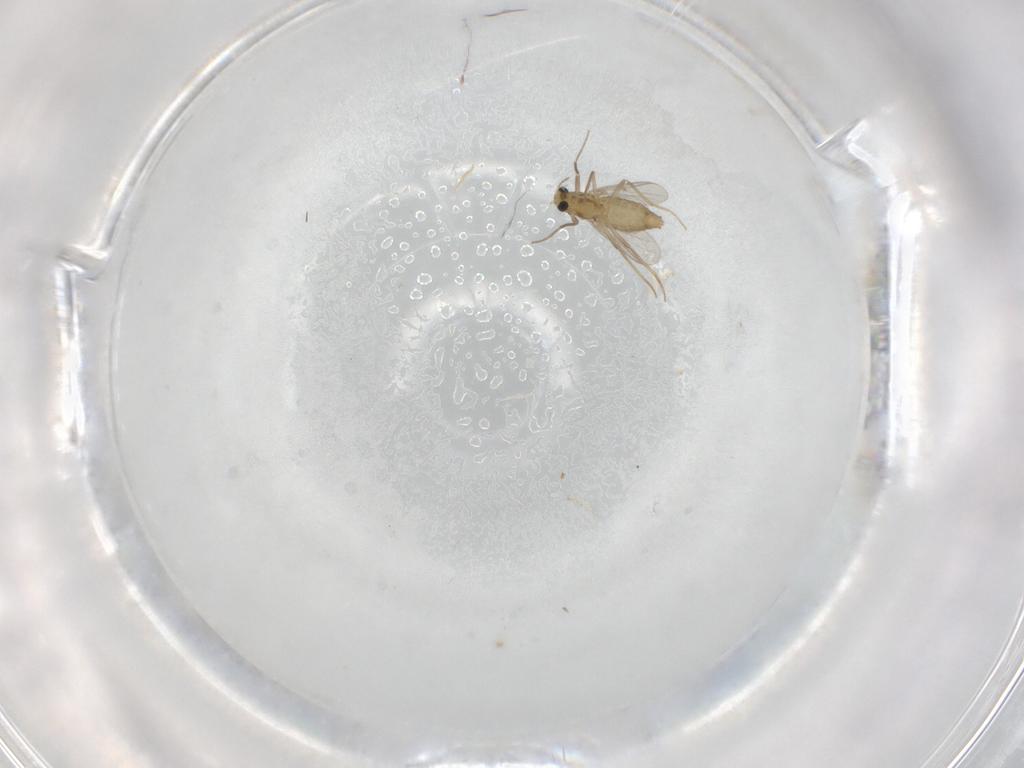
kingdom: Animalia
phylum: Arthropoda
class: Insecta
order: Diptera
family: Chironomidae
